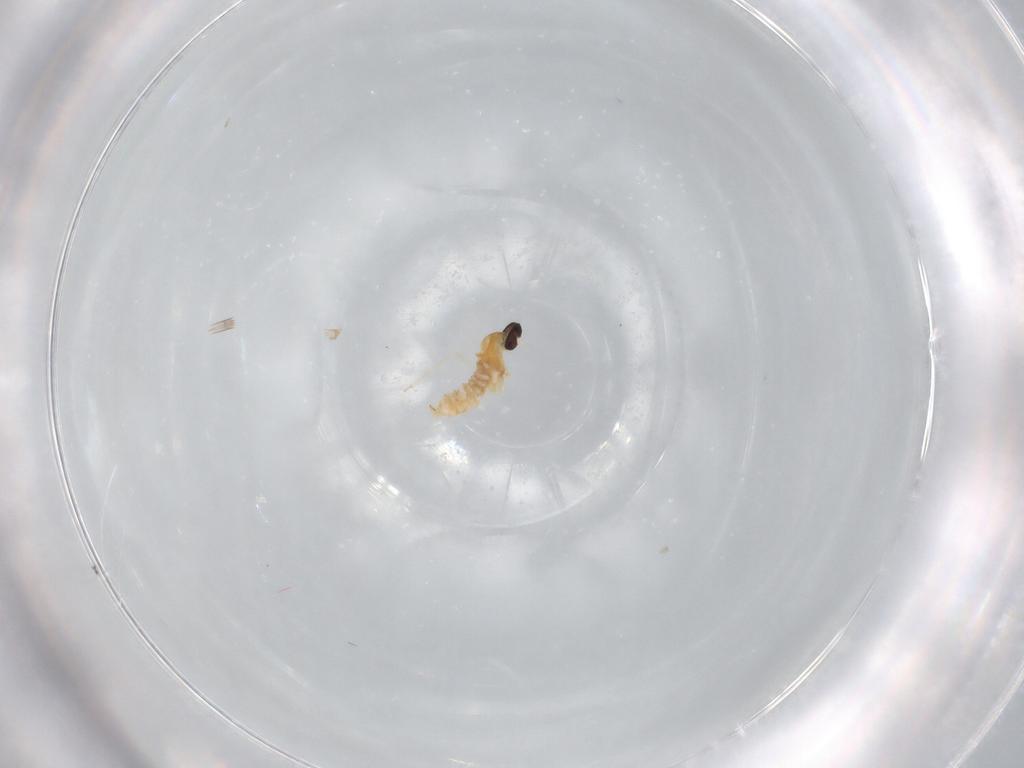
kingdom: Animalia
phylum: Arthropoda
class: Insecta
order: Diptera
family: Cecidomyiidae
